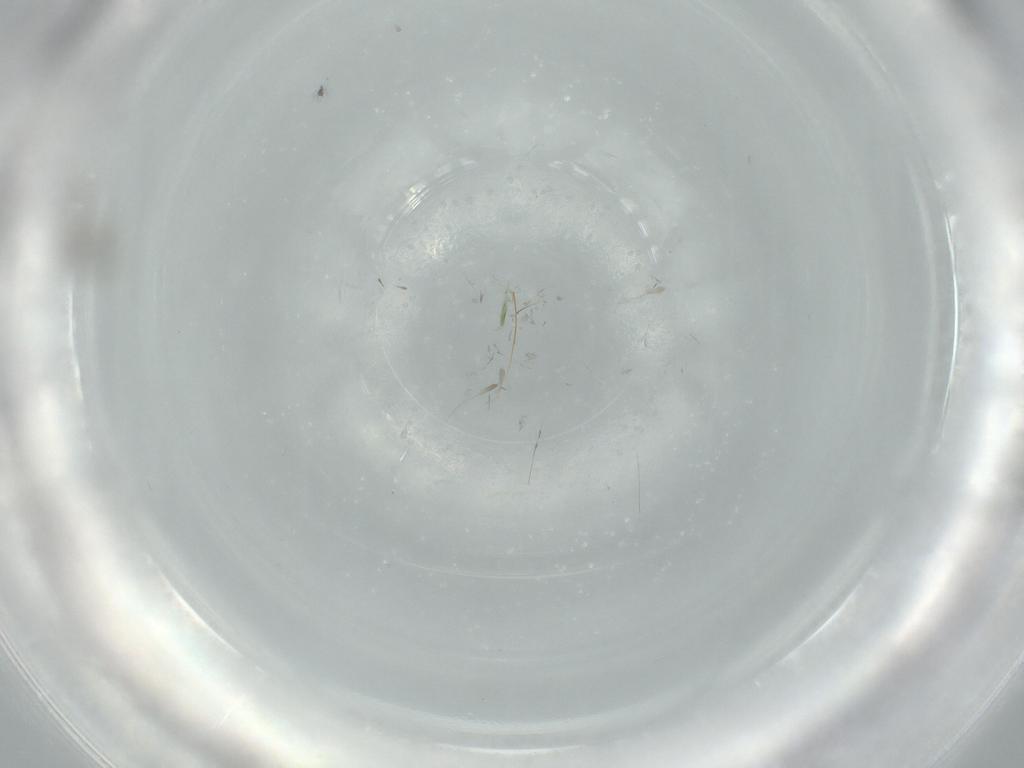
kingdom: Animalia
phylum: Arthropoda
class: Insecta
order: Diptera
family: Cecidomyiidae
